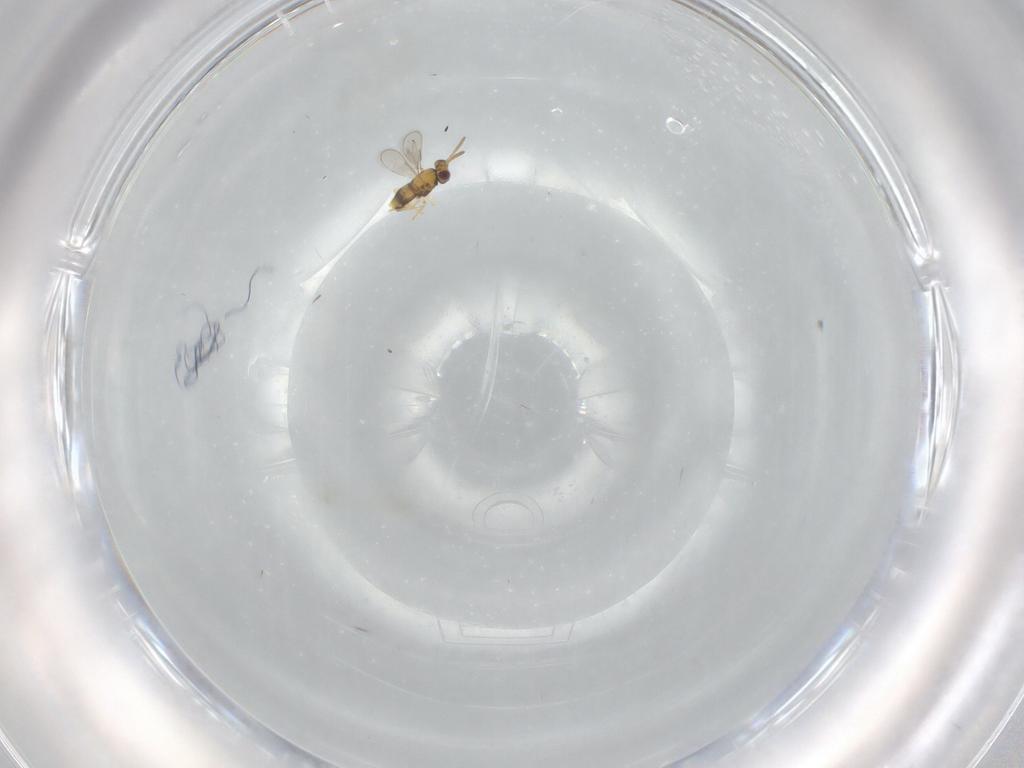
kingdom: Animalia
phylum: Arthropoda
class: Insecta
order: Hymenoptera
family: Aphelinidae
